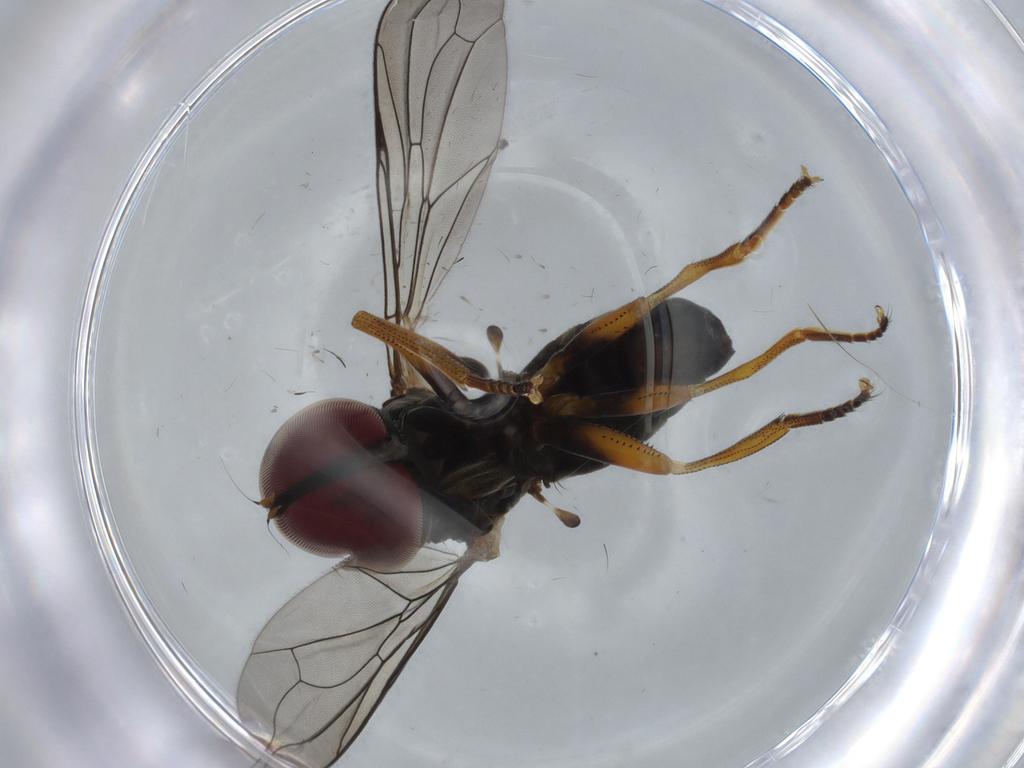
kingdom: Animalia
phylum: Arthropoda
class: Insecta
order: Diptera
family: Pipunculidae
